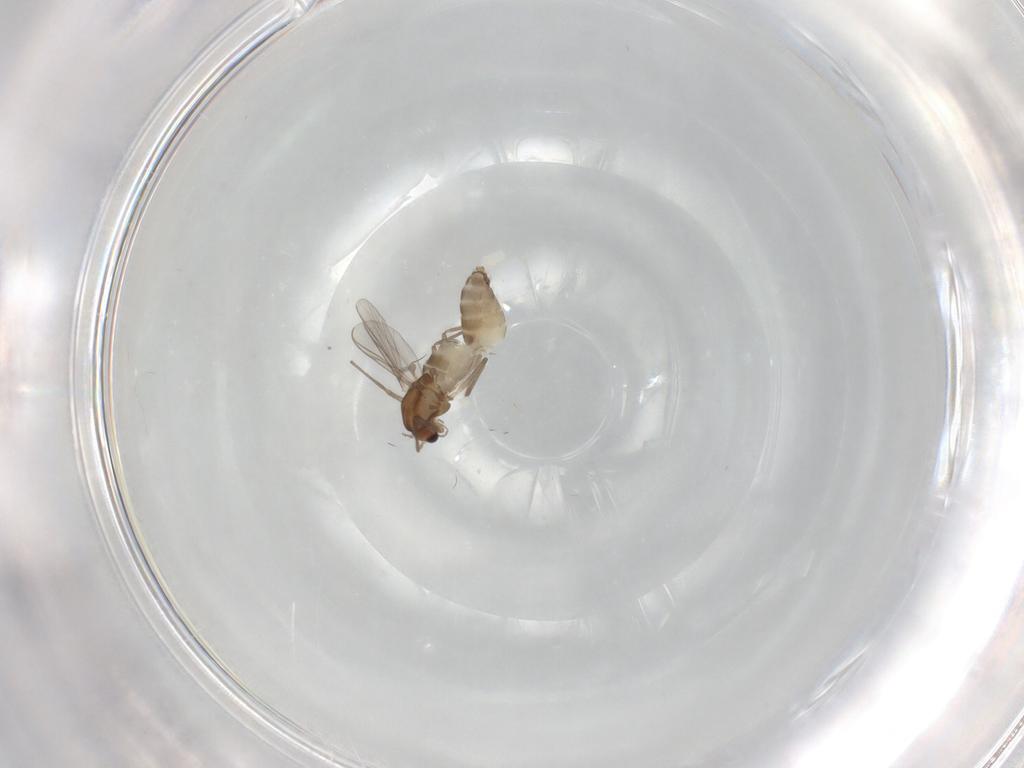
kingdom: Animalia
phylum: Arthropoda
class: Insecta
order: Diptera
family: Chironomidae
